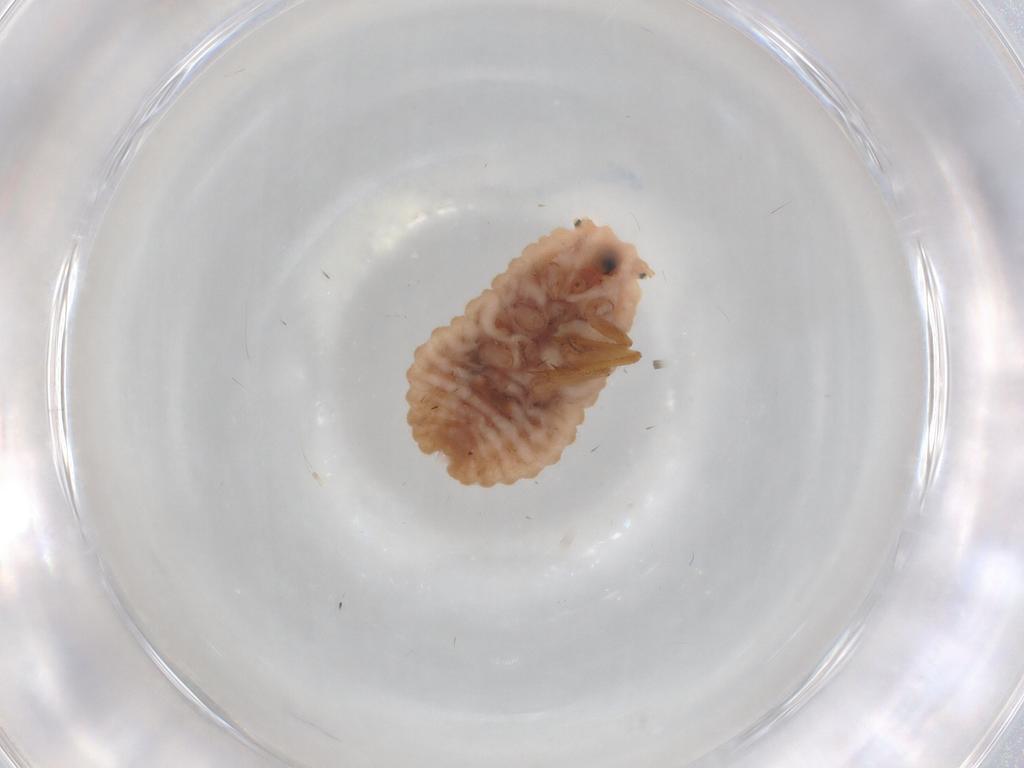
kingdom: Animalia
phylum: Arthropoda
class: Insecta
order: Hemiptera
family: Coccoidea_incertae_sedis
